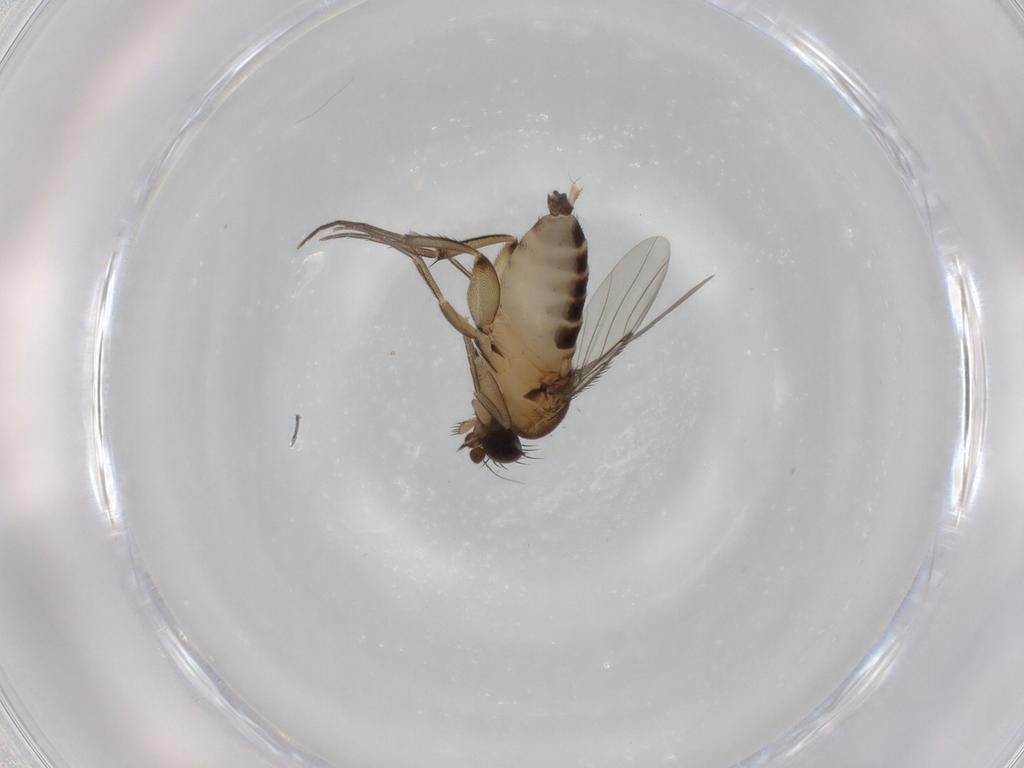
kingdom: Animalia
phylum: Arthropoda
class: Insecta
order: Diptera
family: Phoridae
